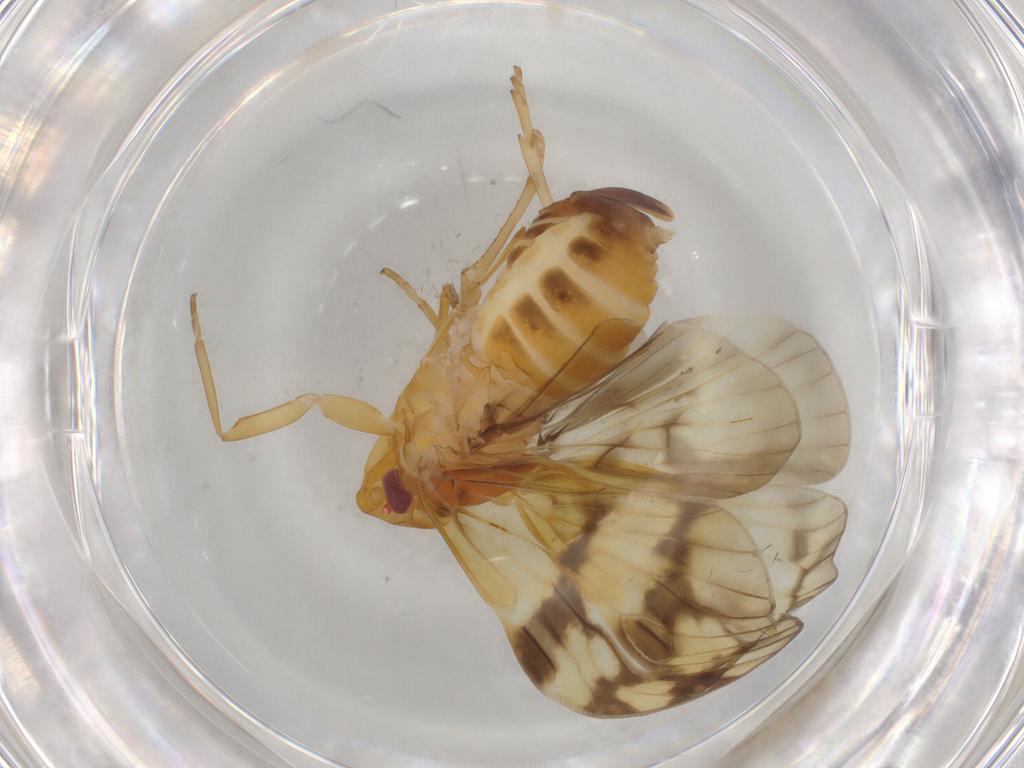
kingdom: Animalia
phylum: Arthropoda
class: Insecta
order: Hemiptera
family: Cixiidae
